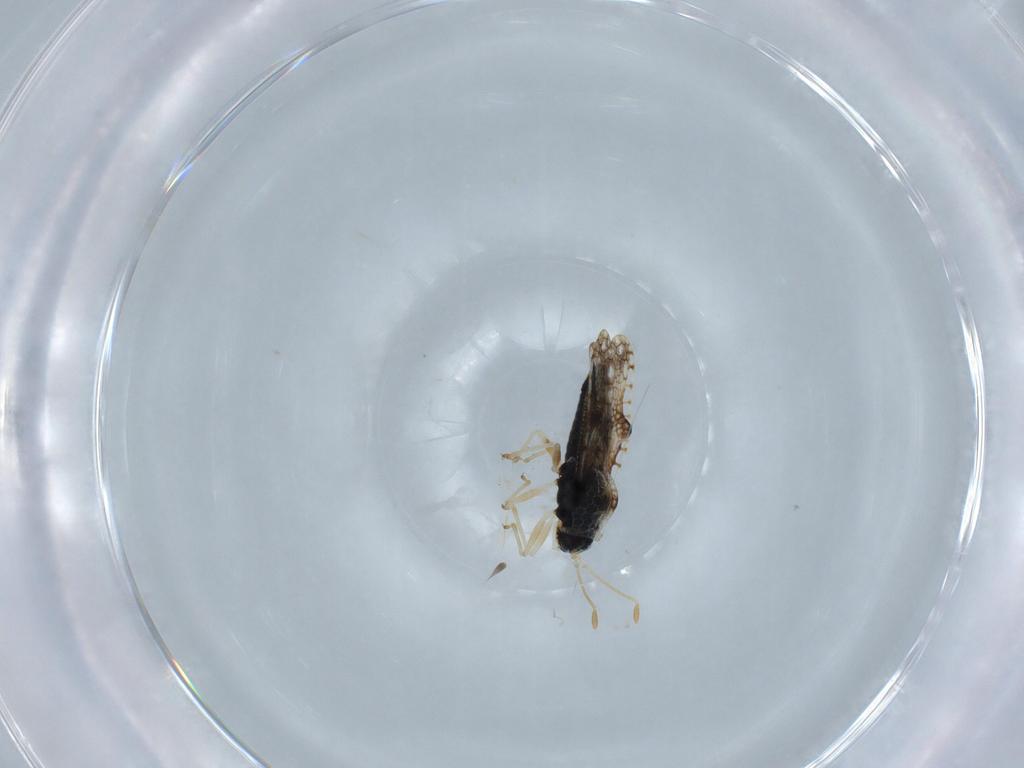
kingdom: Animalia
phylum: Arthropoda
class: Insecta
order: Hemiptera
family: Tingidae
